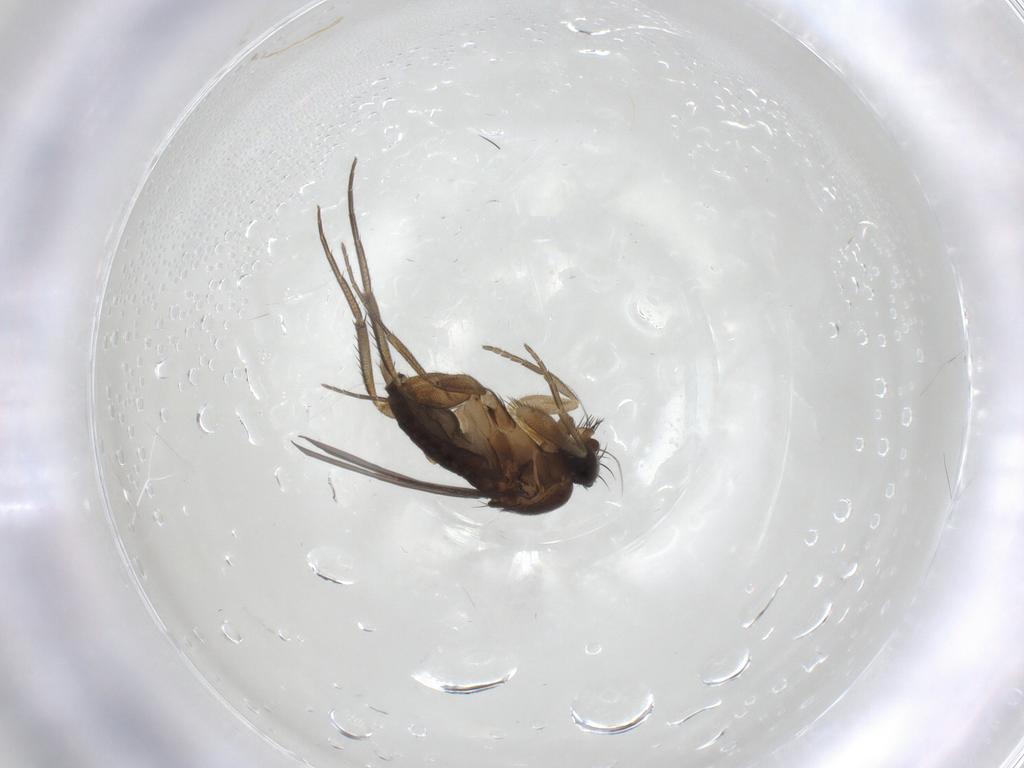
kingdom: Animalia
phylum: Arthropoda
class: Insecta
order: Diptera
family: Phoridae
